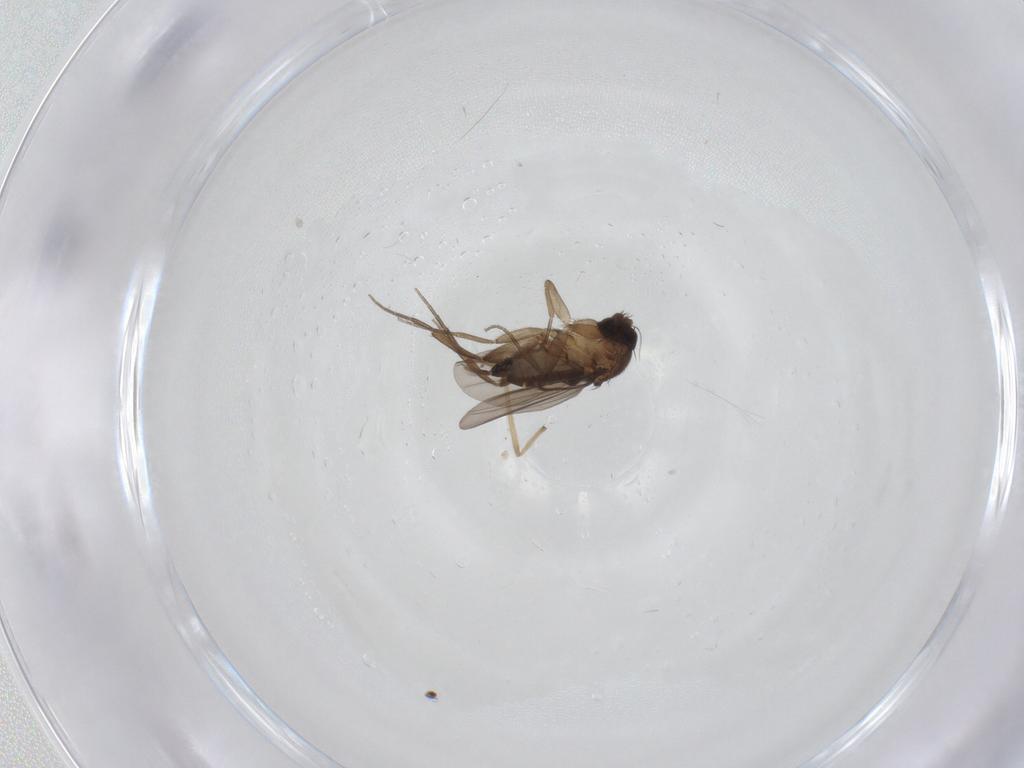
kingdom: Animalia
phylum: Arthropoda
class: Insecta
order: Diptera
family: Phoridae
